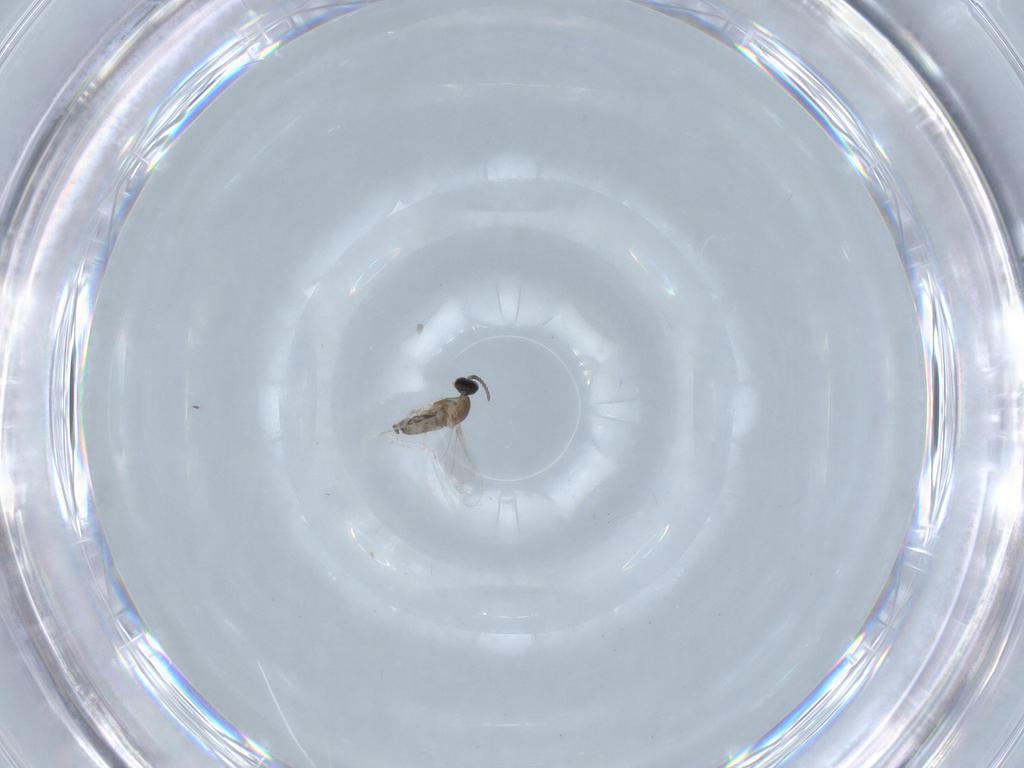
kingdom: Animalia
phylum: Arthropoda
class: Insecta
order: Diptera
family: Cecidomyiidae
